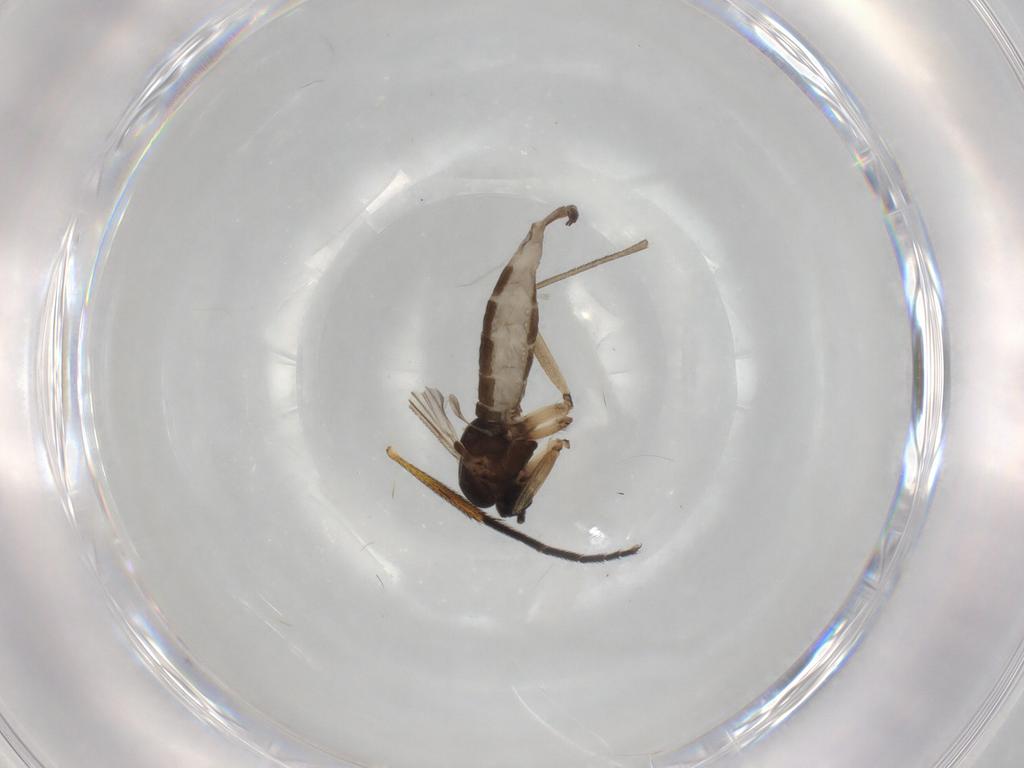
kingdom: Animalia
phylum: Arthropoda
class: Insecta
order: Diptera
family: Sciaridae
